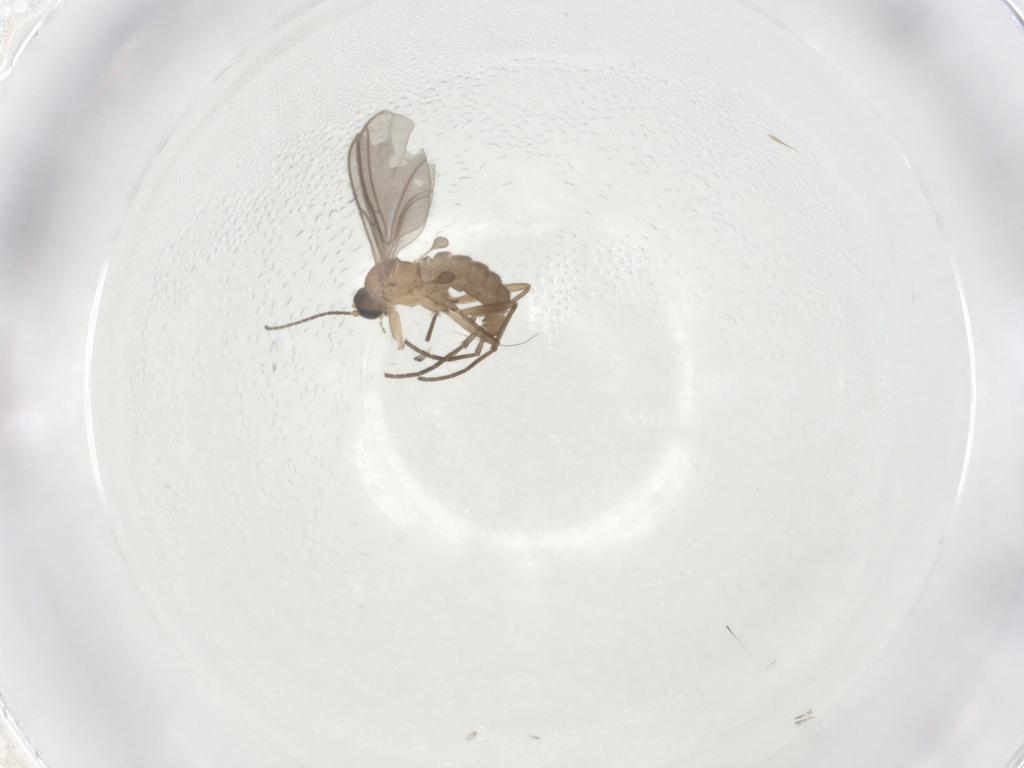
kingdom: Animalia
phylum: Arthropoda
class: Insecta
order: Diptera
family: Sciaridae
